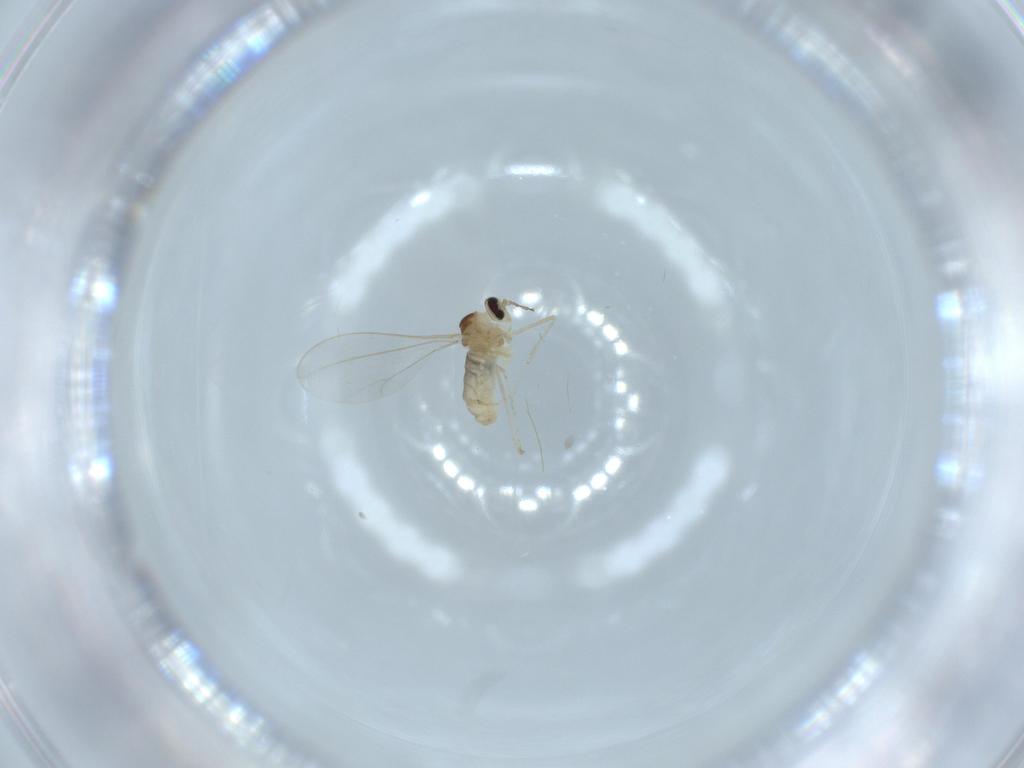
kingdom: Animalia
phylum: Arthropoda
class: Insecta
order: Diptera
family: Cecidomyiidae
